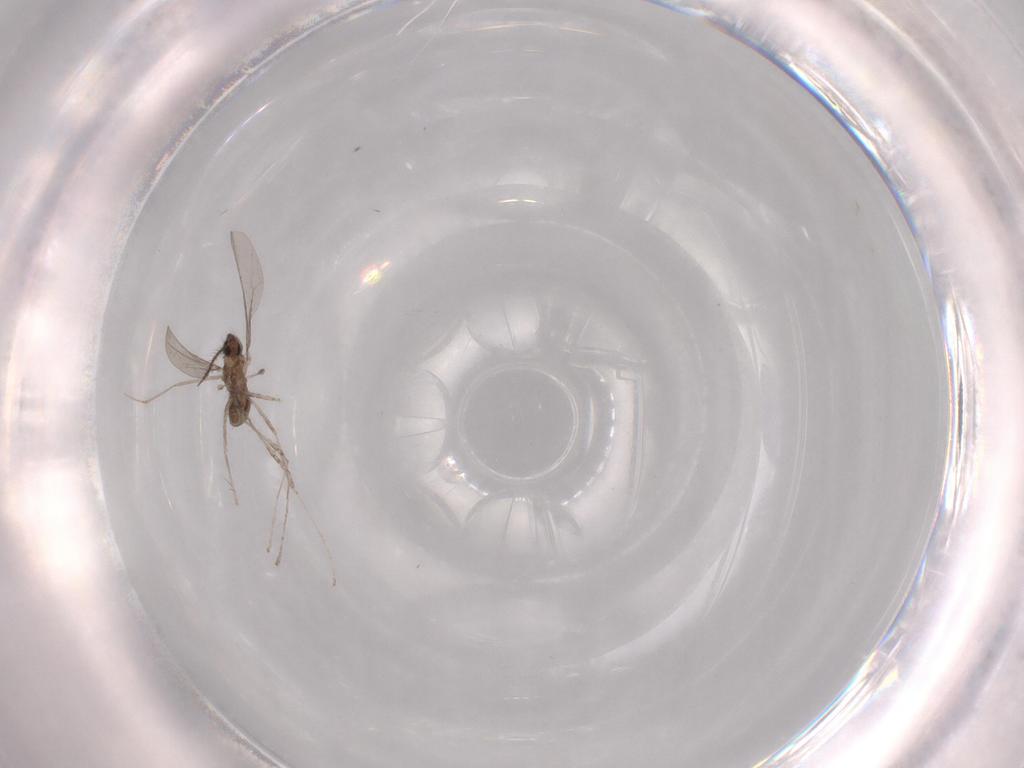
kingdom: Animalia
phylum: Arthropoda
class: Insecta
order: Diptera
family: Cecidomyiidae
